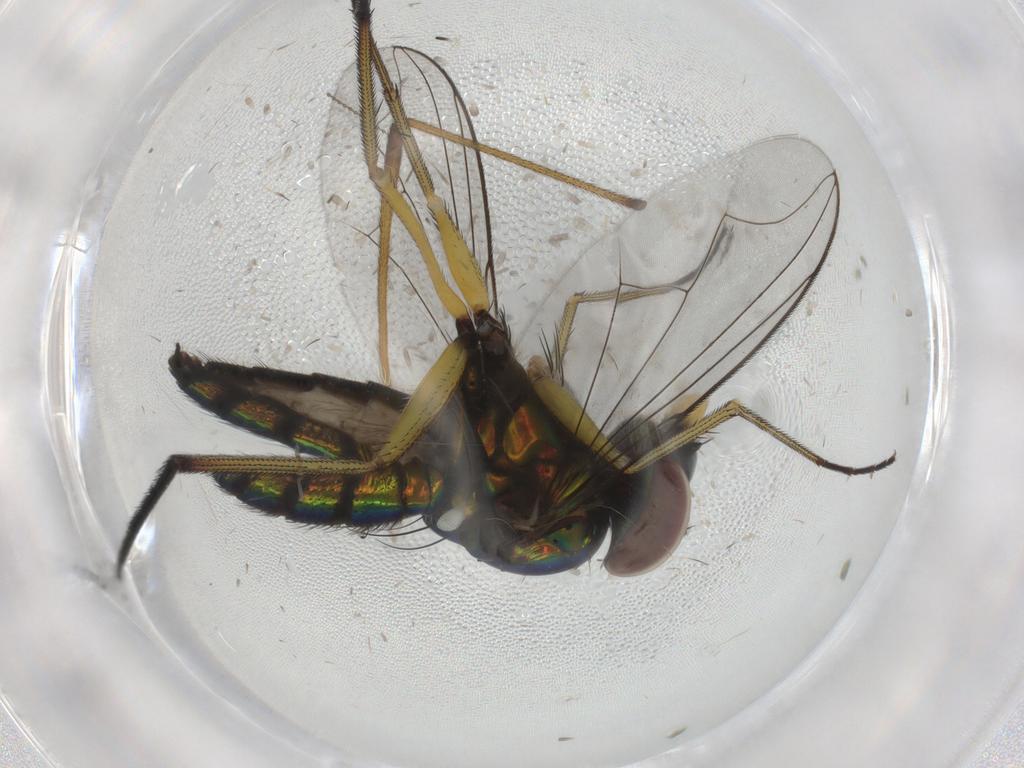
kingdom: Animalia
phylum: Arthropoda
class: Insecta
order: Diptera
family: Dolichopodidae
